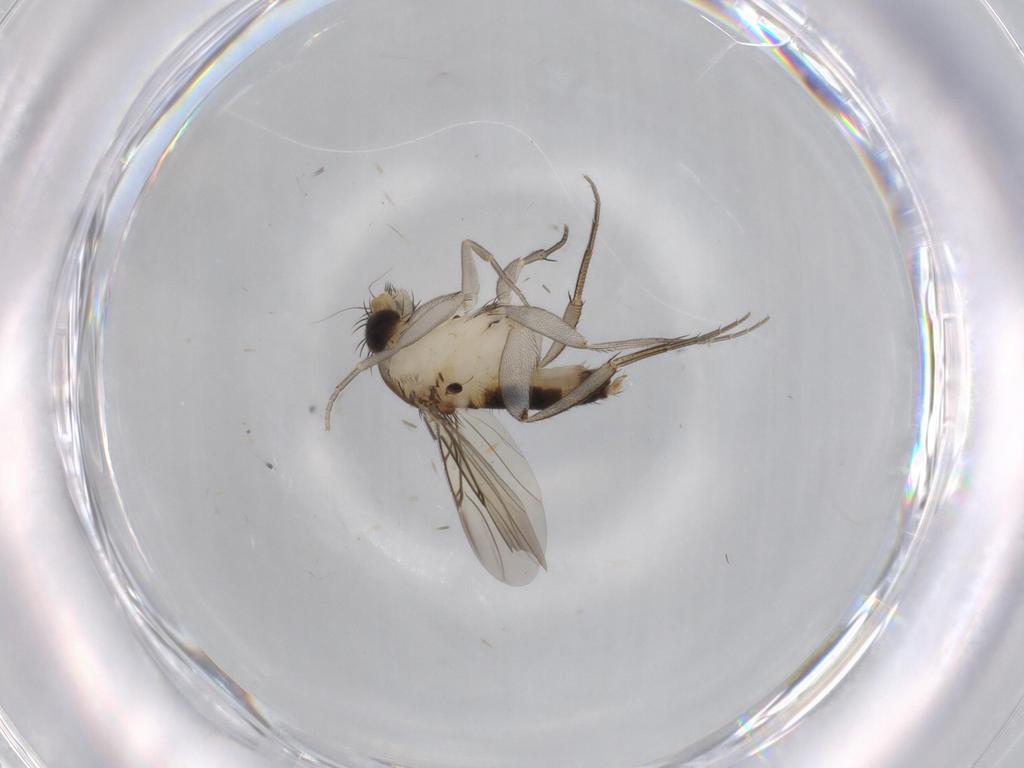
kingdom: Animalia
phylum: Arthropoda
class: Insecta
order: Diptera
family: Phoridae
